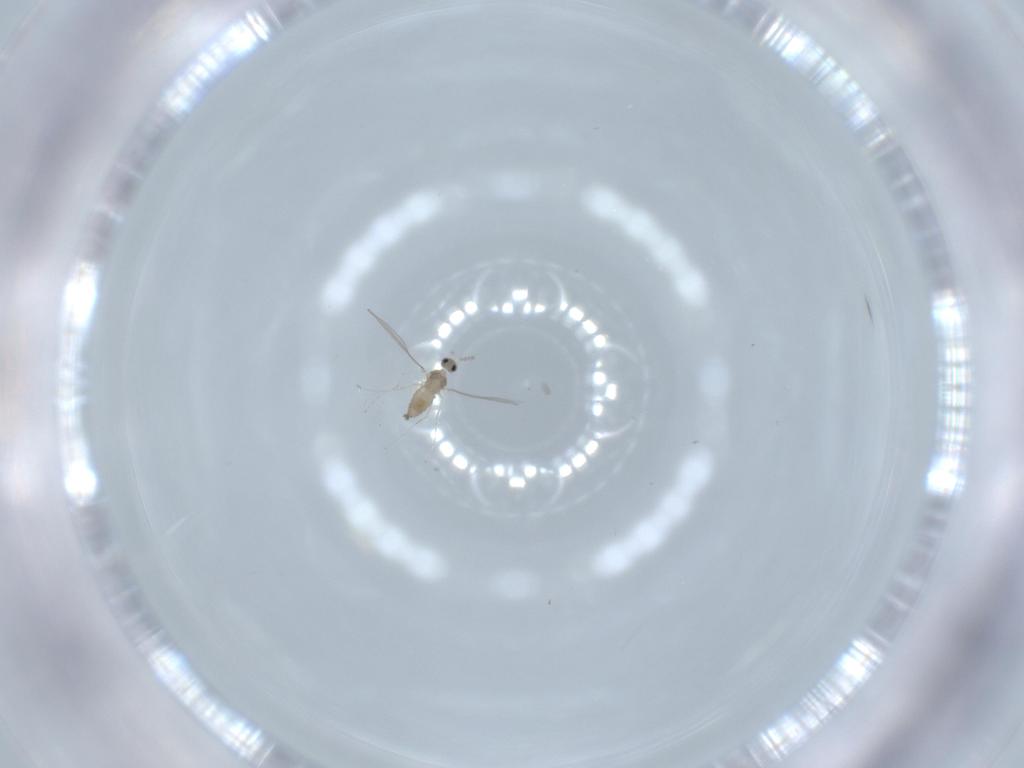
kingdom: Animalia
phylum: Arthropoda
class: Insecta
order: Diptera
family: Cecidomyiidae
